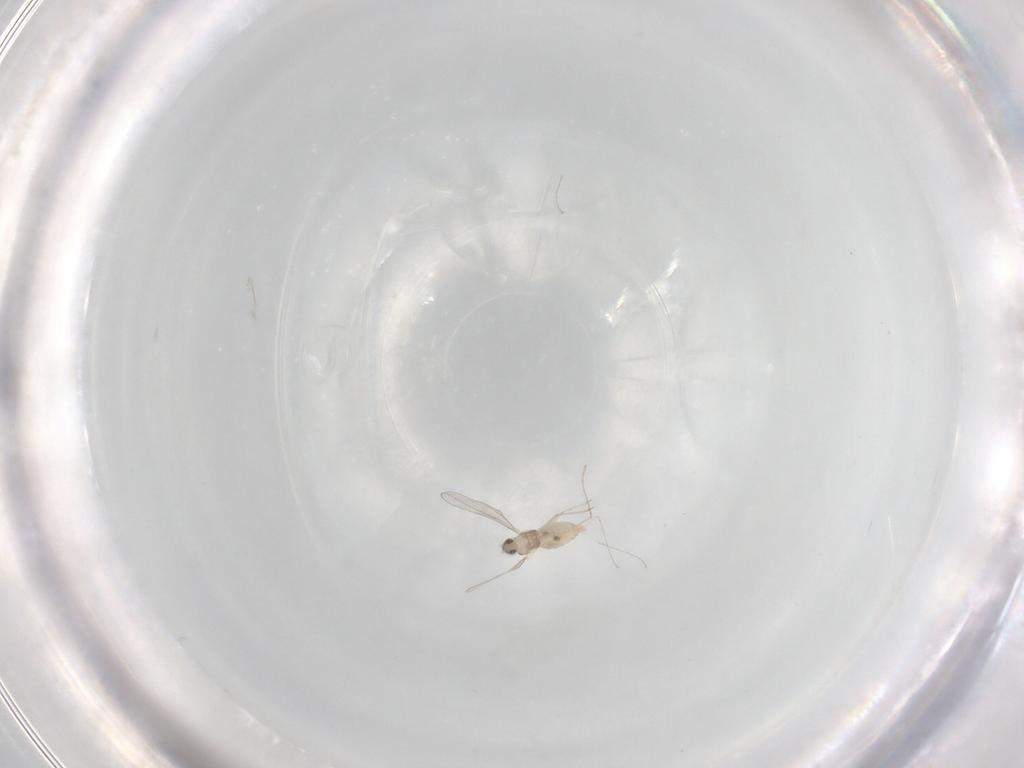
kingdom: Animalia
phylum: Arthropoda
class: Insecta
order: Diptera
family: Cecidomyiidae
